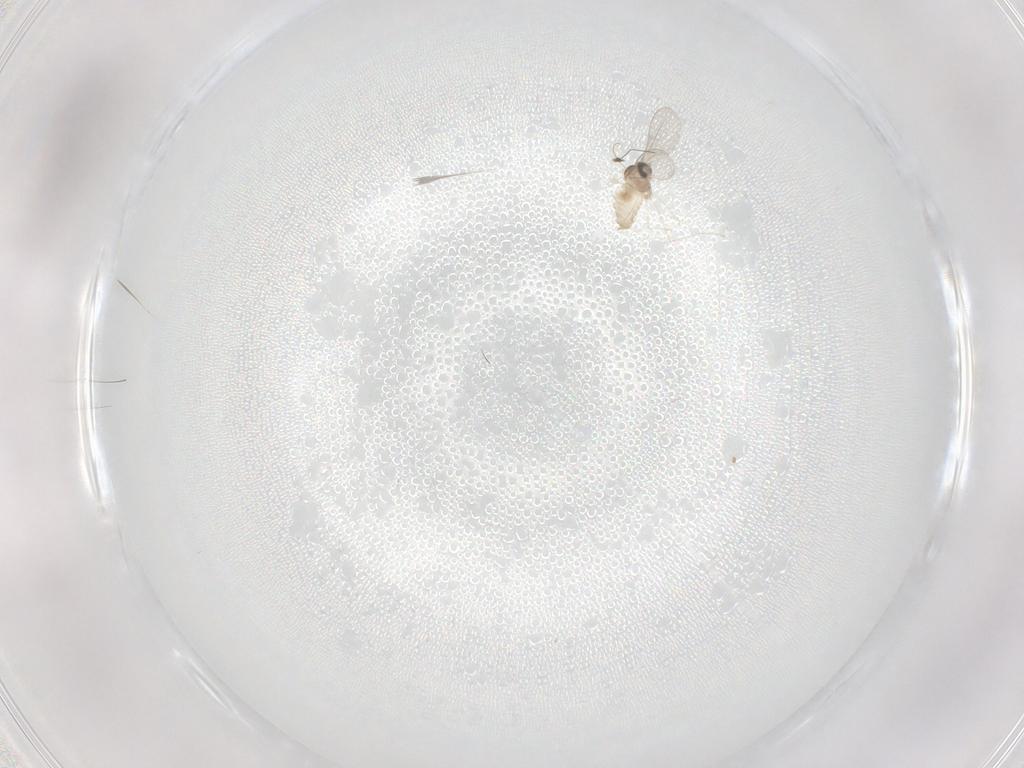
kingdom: Animalia
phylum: Arthropoda
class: Insecta
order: Diptera
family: Cecidomyiidae
